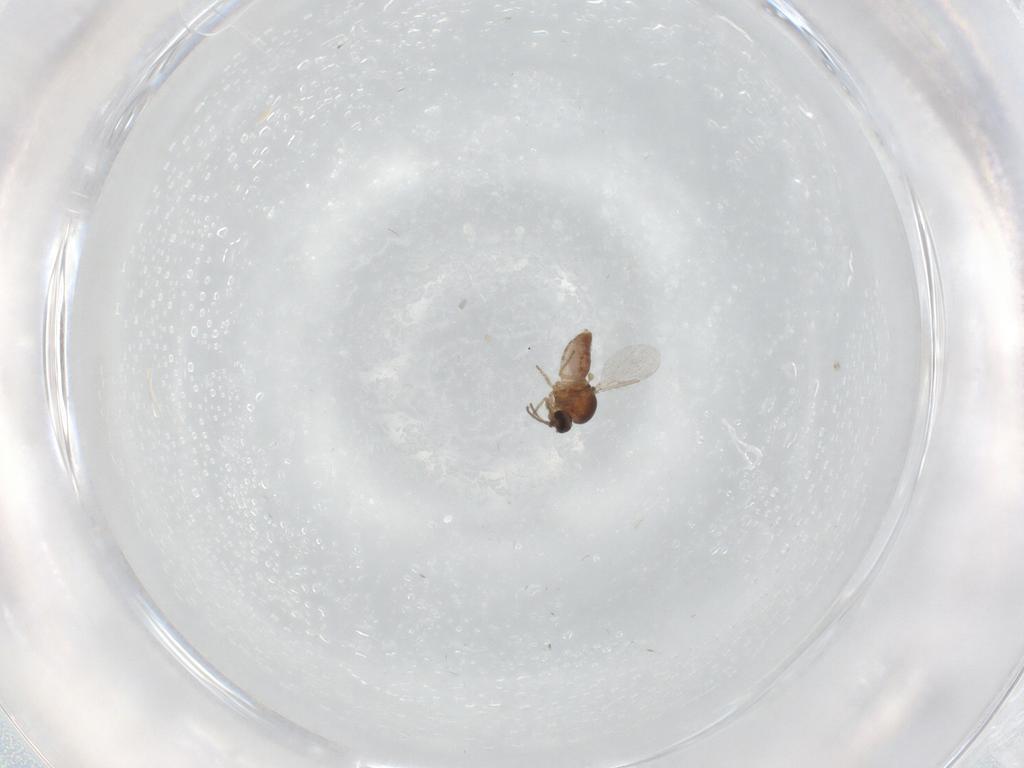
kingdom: Animalia
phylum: Arthropoda
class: Insecta
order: Diptera
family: Ceratopogonidae
